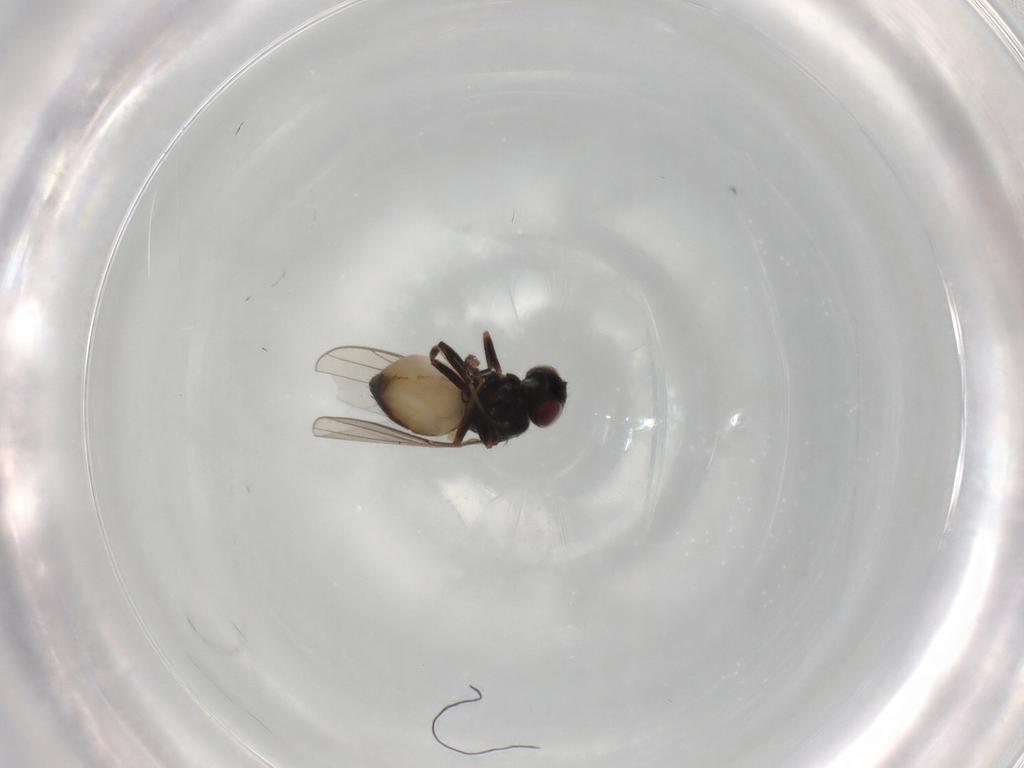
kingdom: Animalia
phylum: Arthropoda
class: Insecta
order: Diptera
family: Chloropidae
